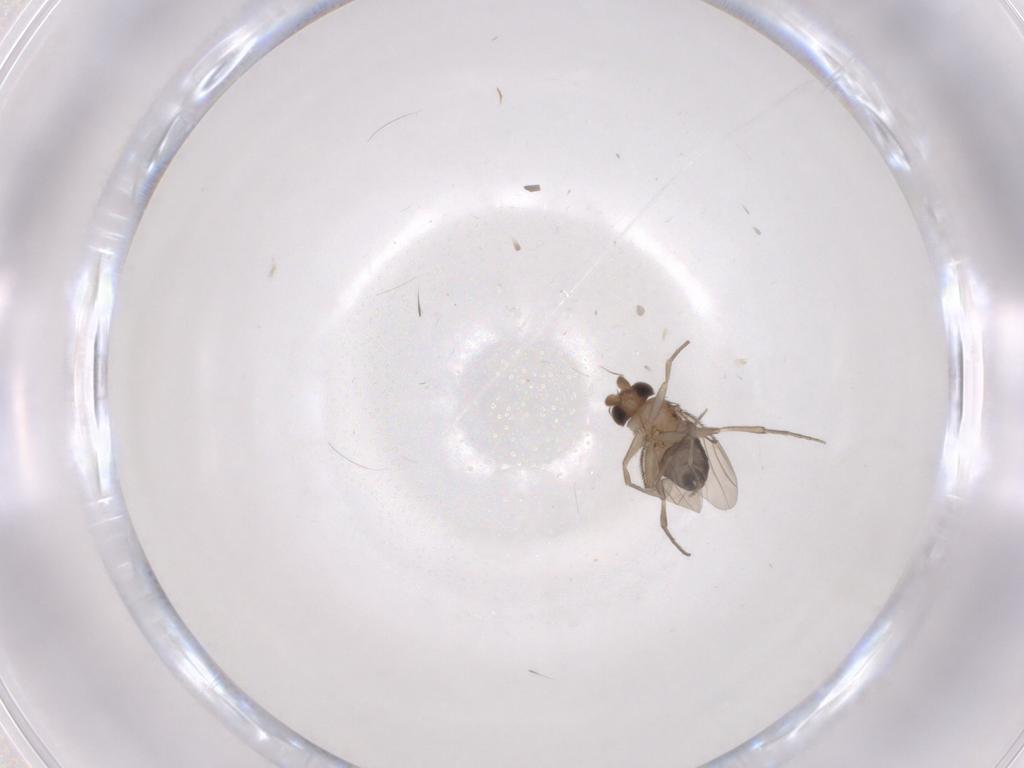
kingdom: Animalia
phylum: Arthropoda
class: Insecta
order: Diptera
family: Phoridae
